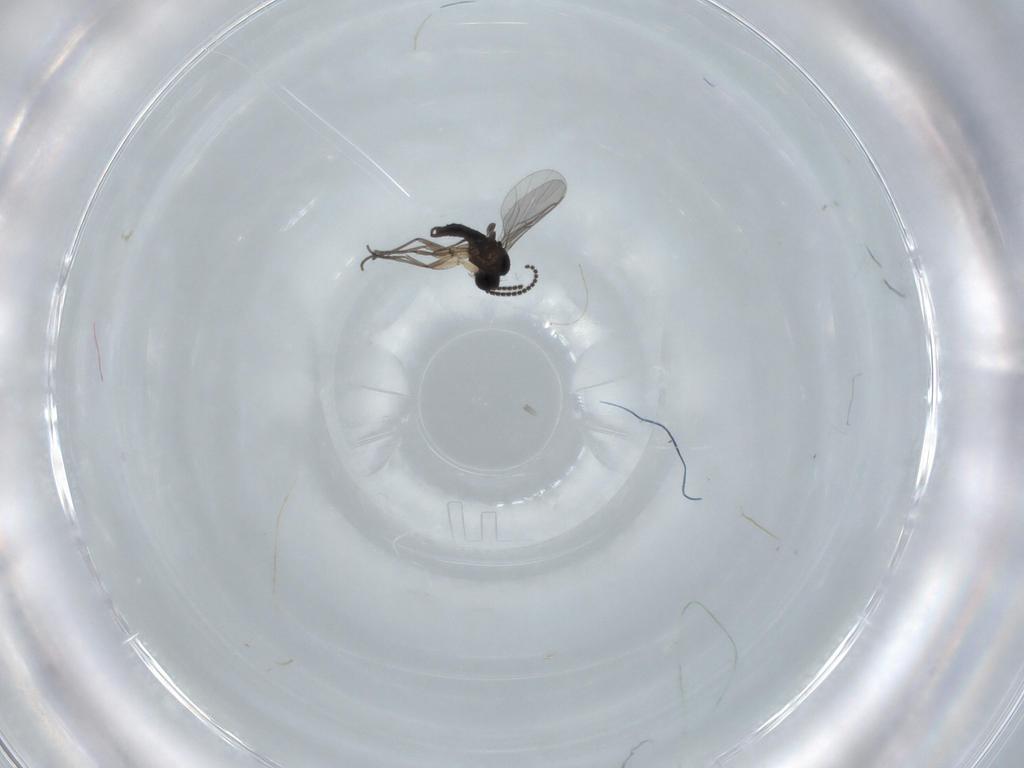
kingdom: Animalia
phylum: Arthropoda
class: Insecta
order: Diptera
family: Sciaridae
